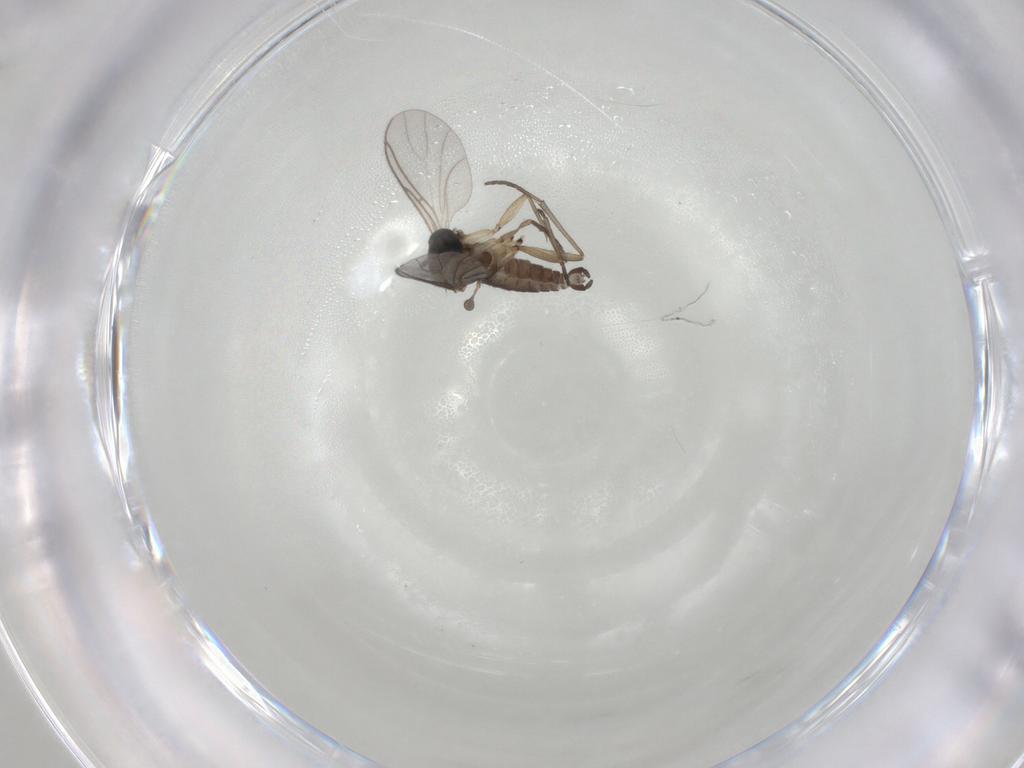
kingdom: Animalia
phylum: Arthropoda
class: Insecta
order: Diptera
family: Sciaridae
